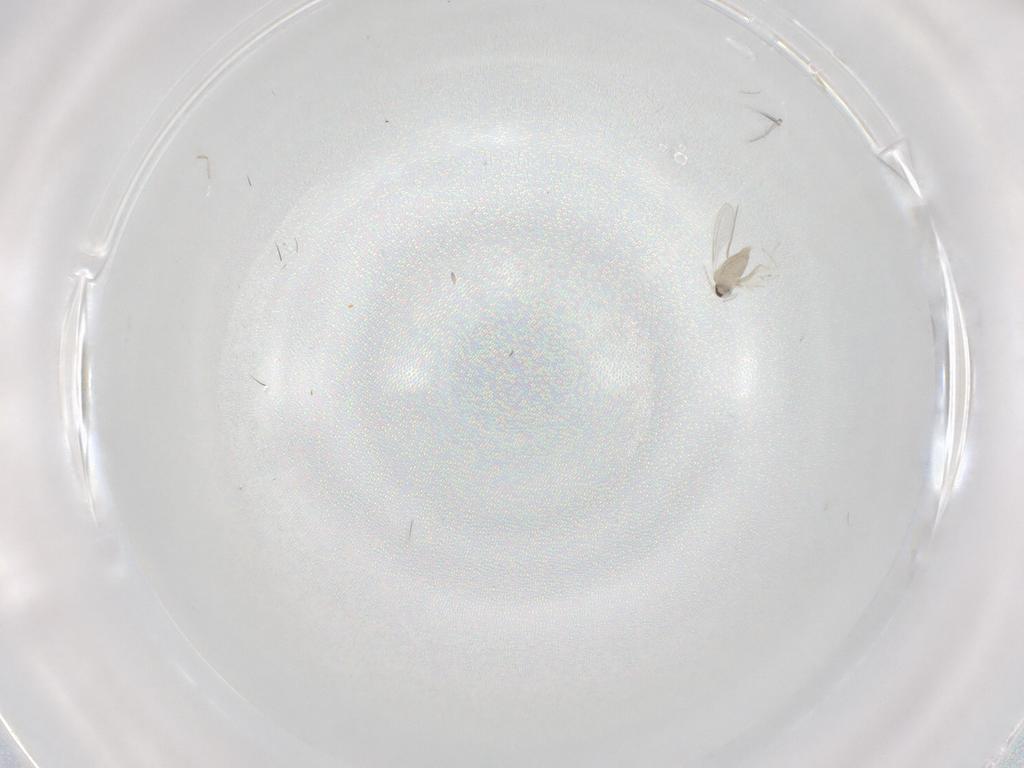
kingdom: Animalia
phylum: Arthropoda
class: Insecta
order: Diptera
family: Cecidomyiidae
